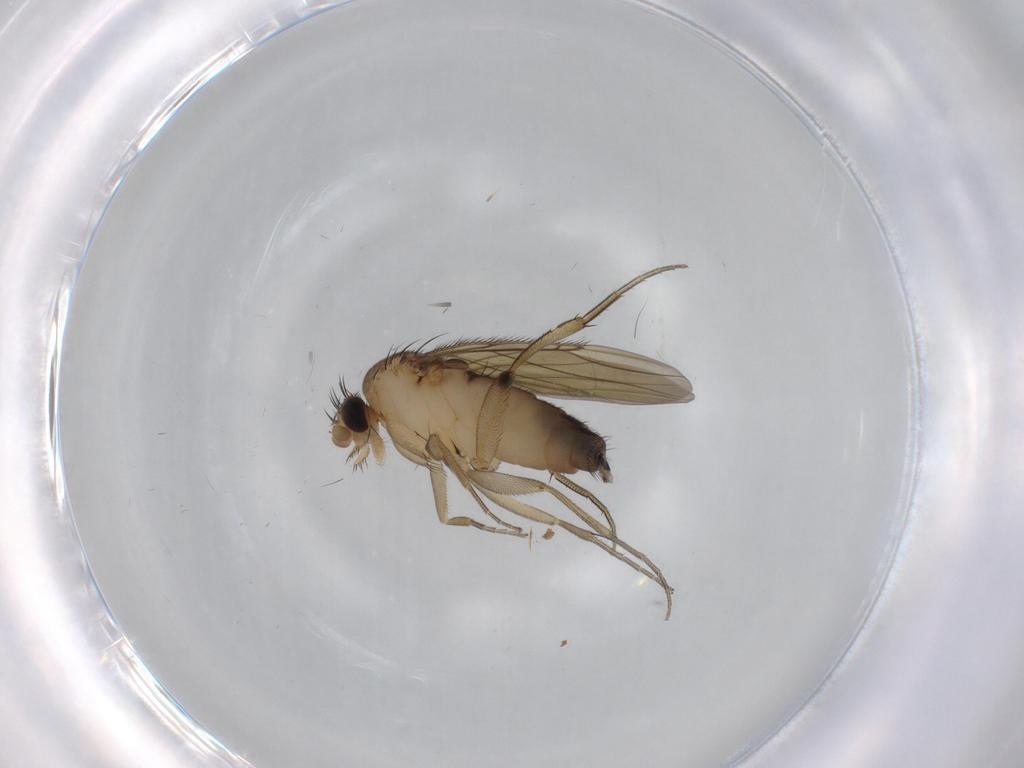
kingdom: Animalia
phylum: Arthropoda
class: Insecta
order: Diptera
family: Phoridae
